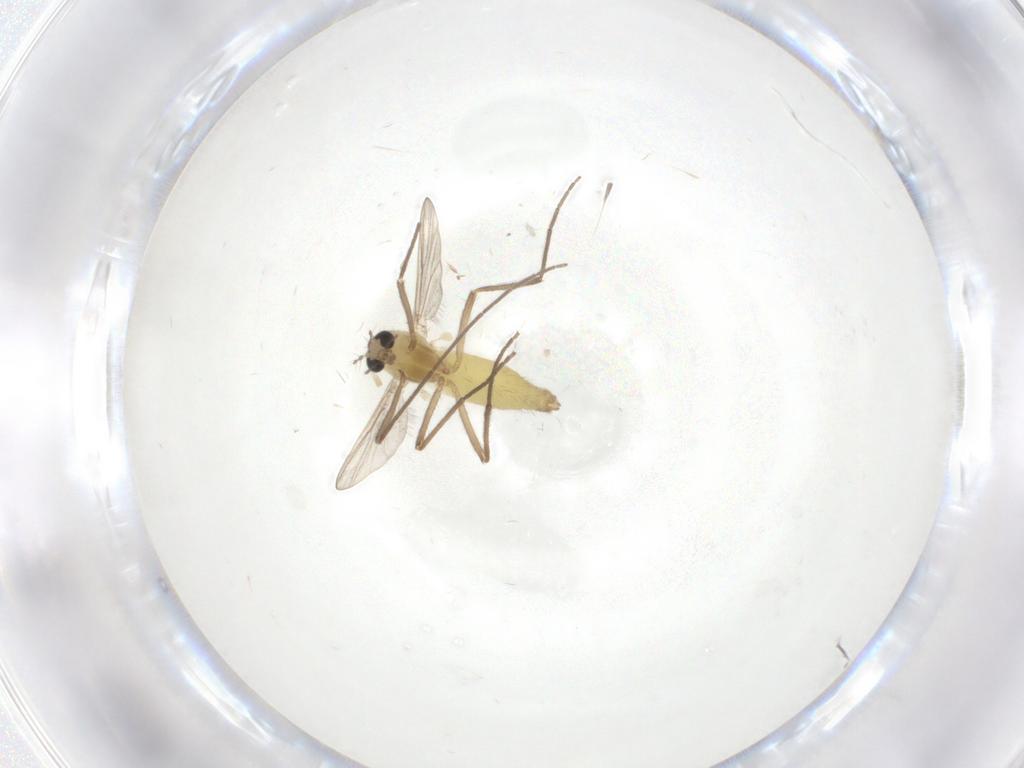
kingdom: Animalia
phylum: Arthropoda
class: Insecta
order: Diptera
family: Chironomidae
